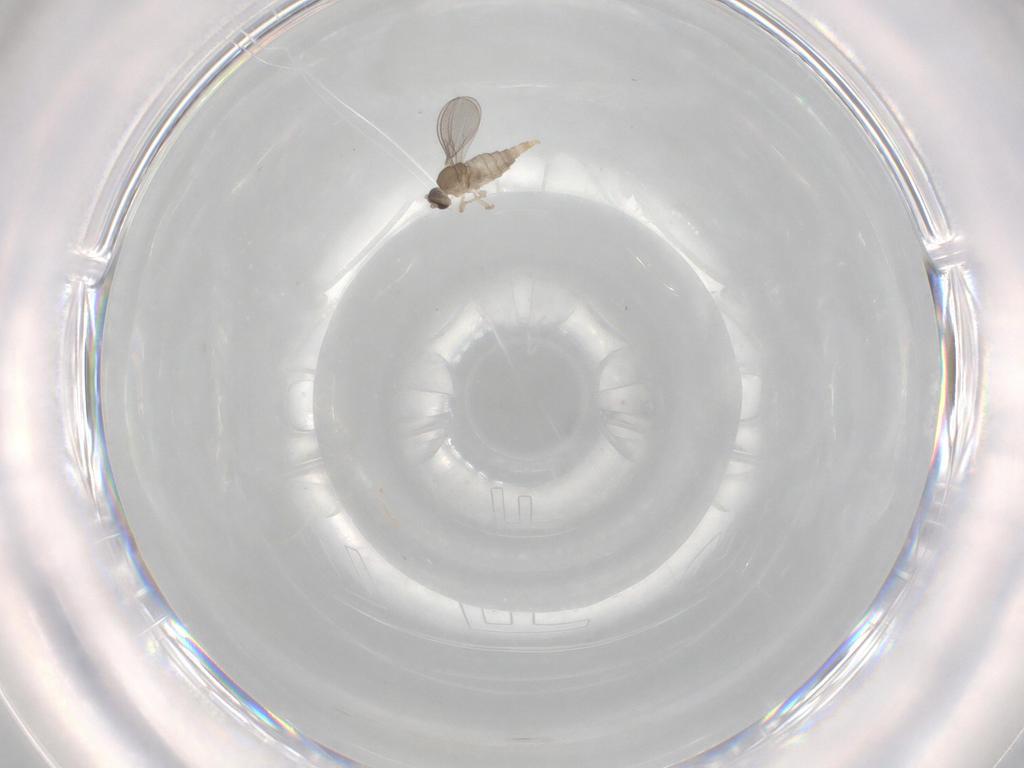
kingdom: Animalia
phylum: Arthropoda
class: Insecta
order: Diptera
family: Cecidomyiidae
